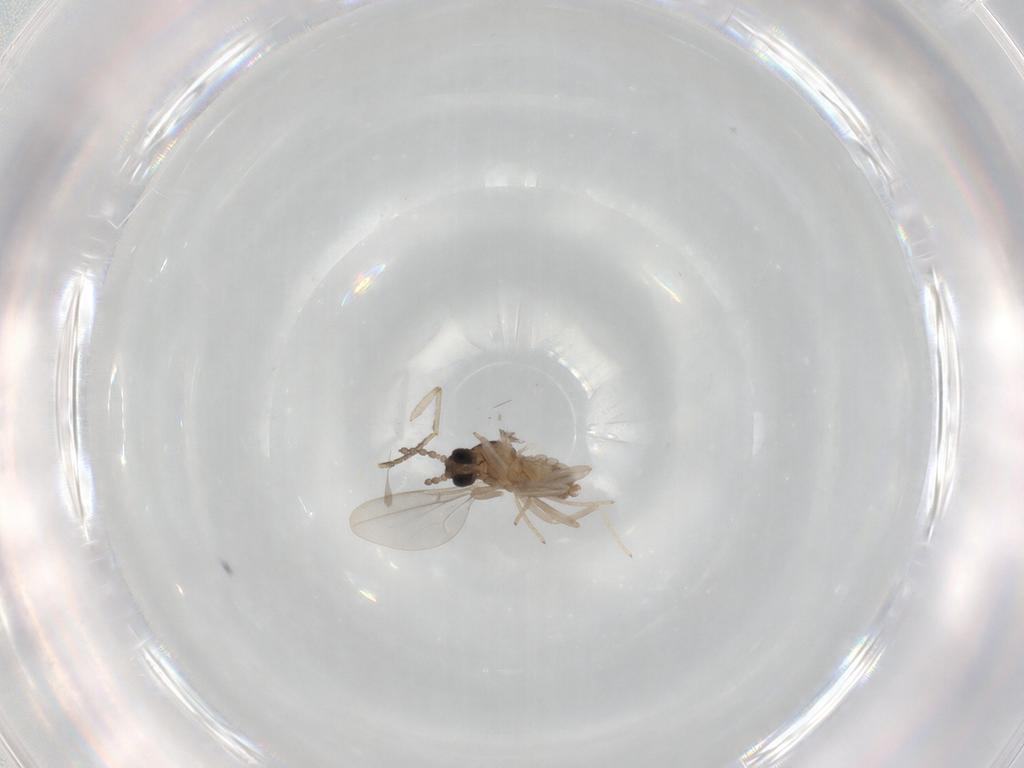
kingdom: Animalia
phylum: Arthropoda
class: Insecta
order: Diptera
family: Cecidomyiidae
